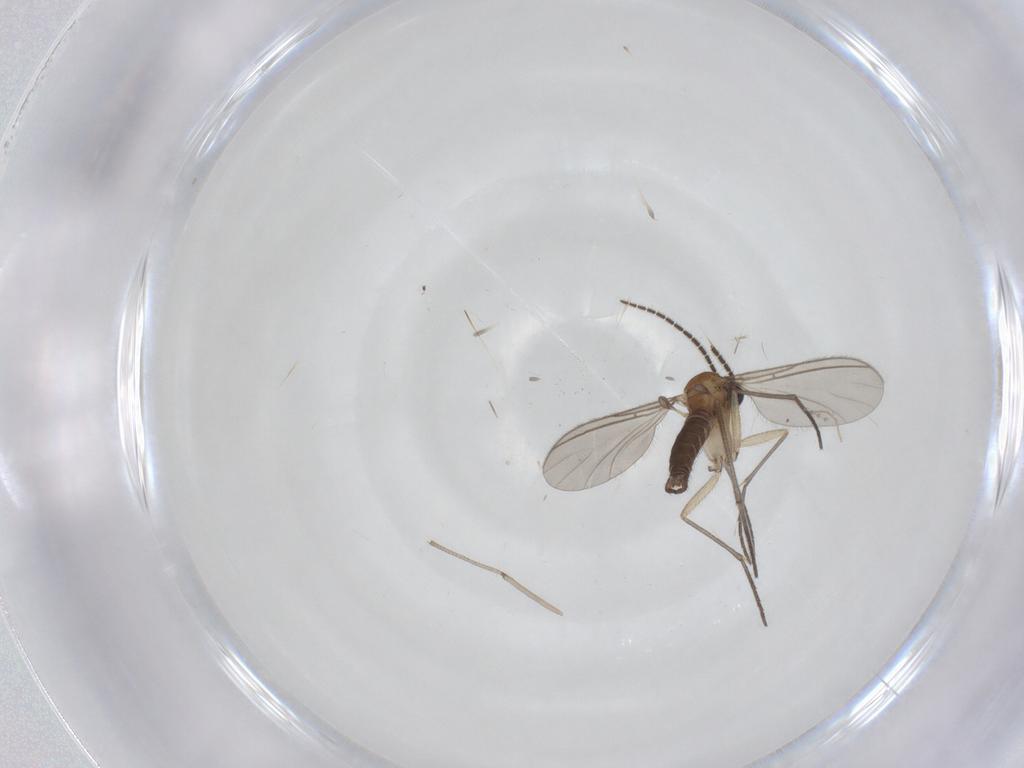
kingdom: Animalia
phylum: Arthropoda
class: Insecta
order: Diptera
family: Sciaridae
